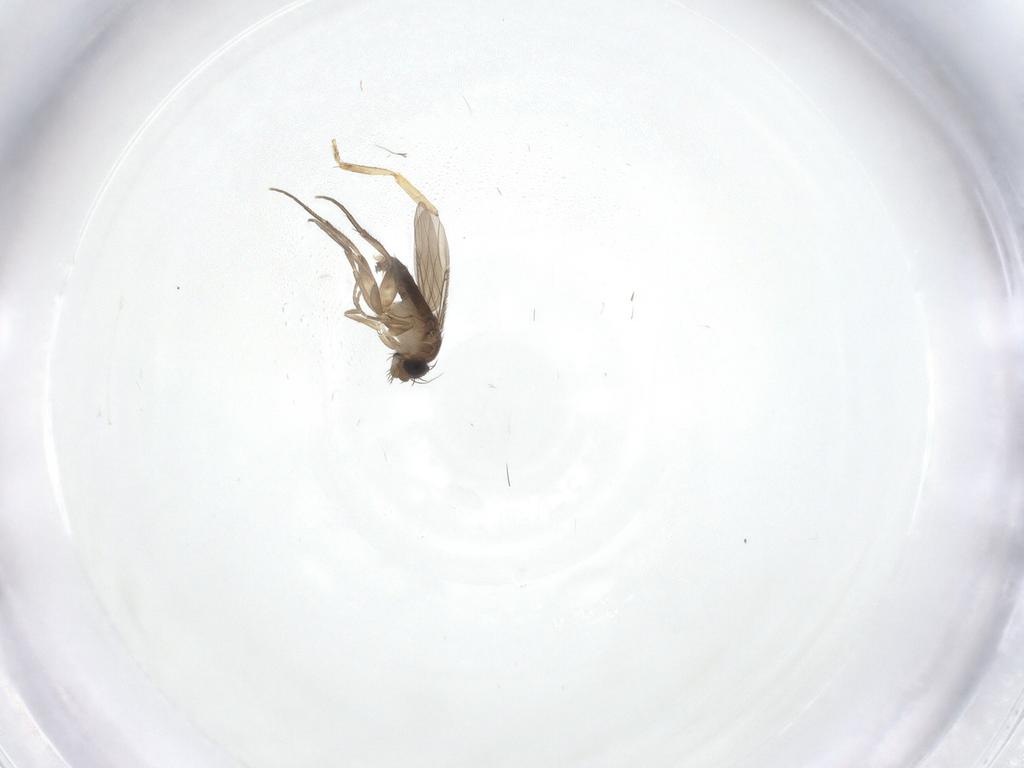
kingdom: Animalia
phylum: Arthropoda
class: Insecta
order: Diptera
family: Phoridae
